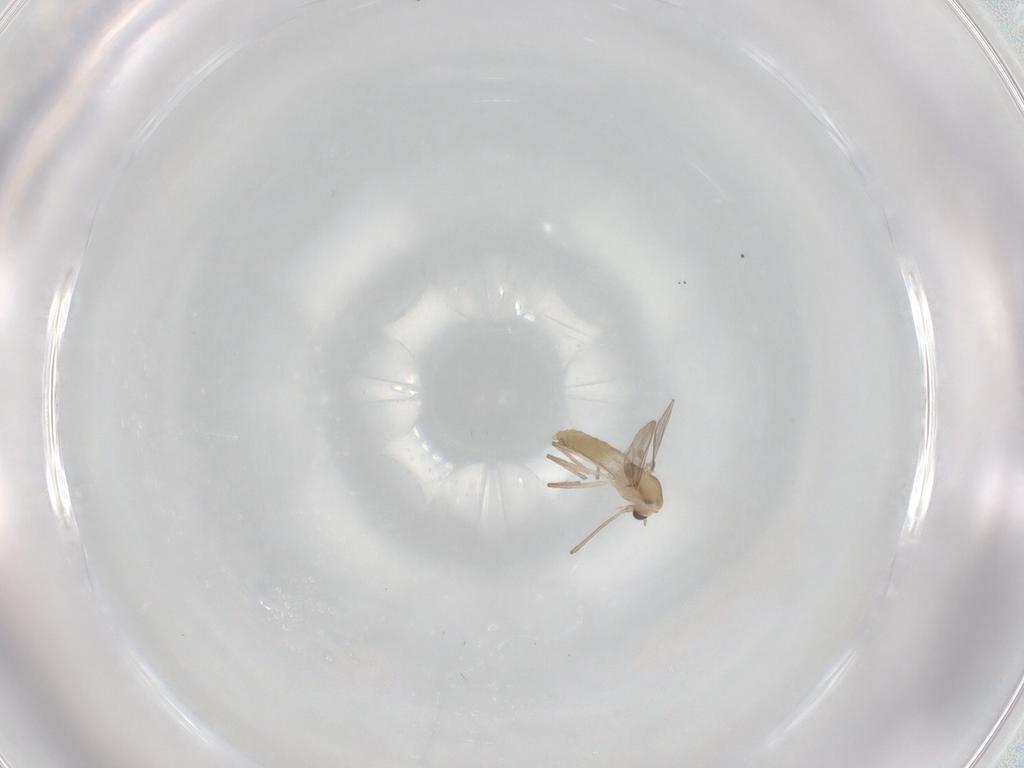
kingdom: Animalia
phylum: Arthropoda
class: Insecta
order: Diptera
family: Chironomidae
